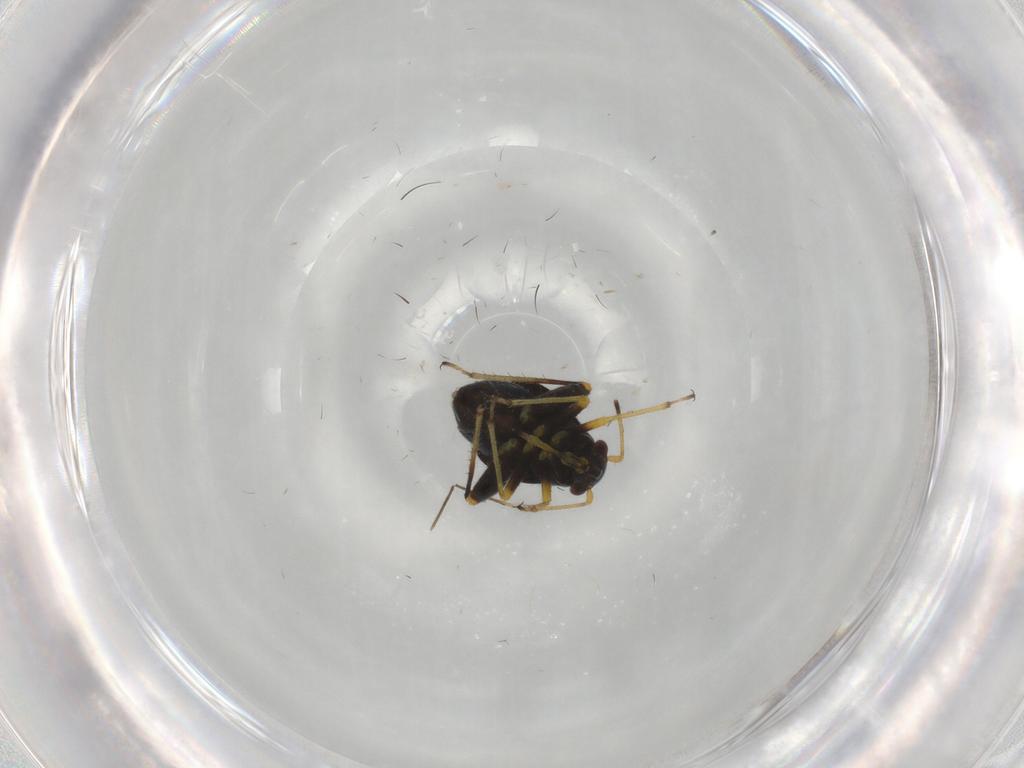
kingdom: Animalia
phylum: Arthropoda
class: Insecta
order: Hemiptera
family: Miridae
